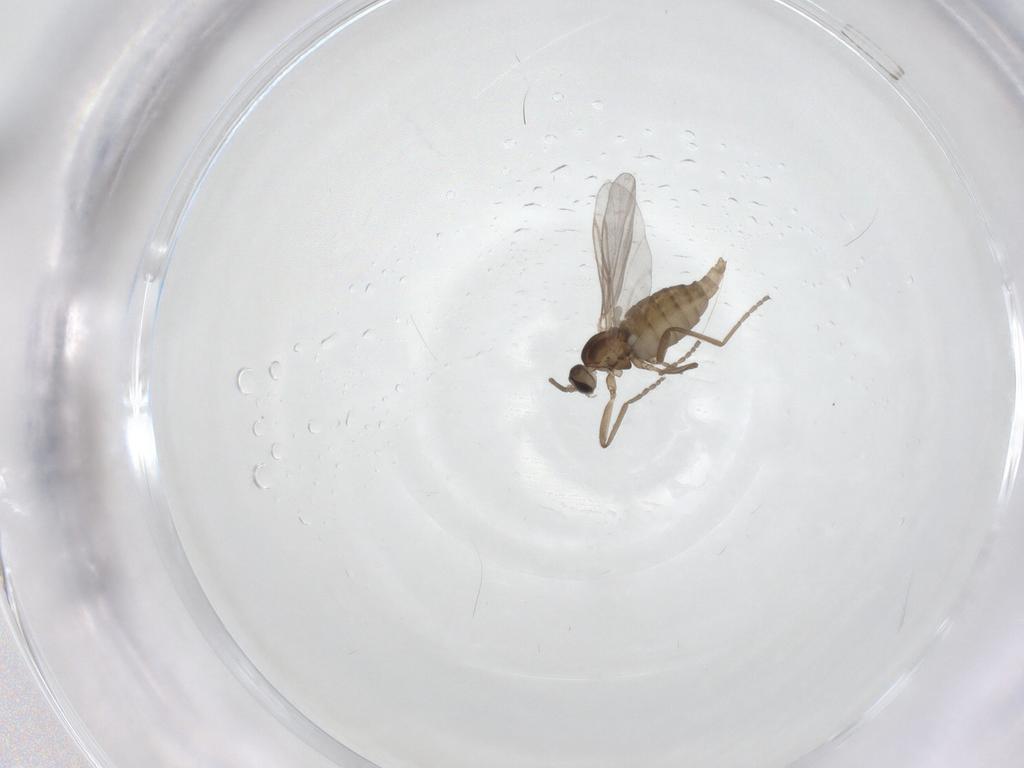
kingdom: Animalia
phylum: Arthropoda
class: Insecta
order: Diptera
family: Cecidomyiidae
